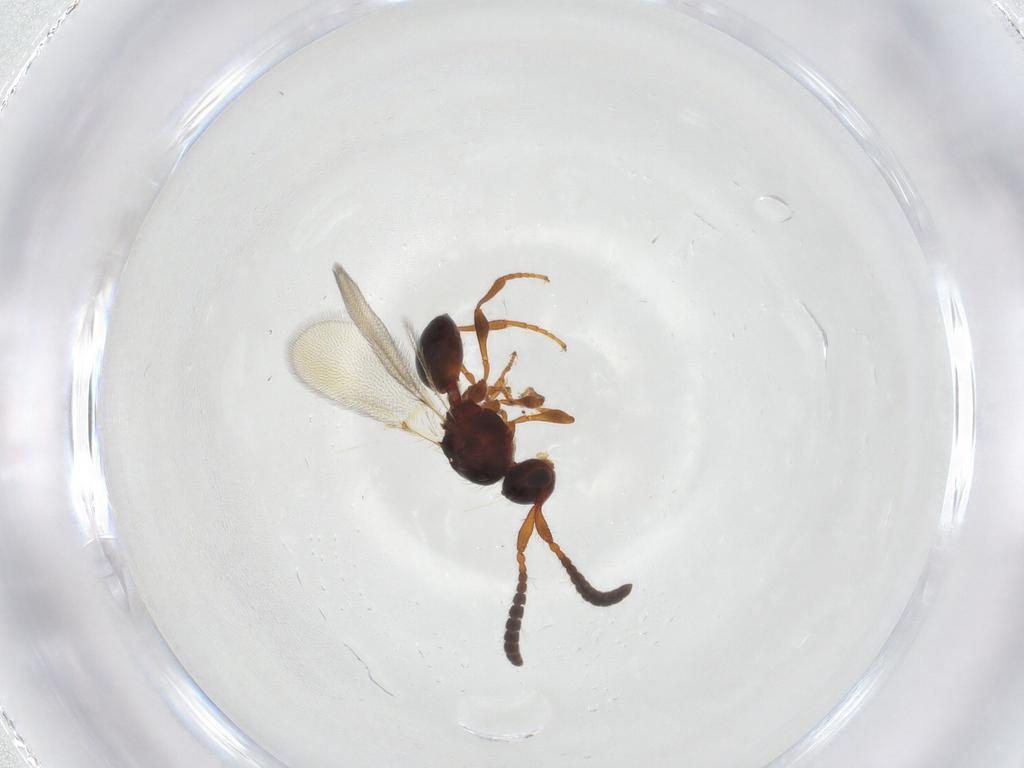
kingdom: Animalia
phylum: Arthropoda
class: Insecta
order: Hymenoptera
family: Diapriidae
